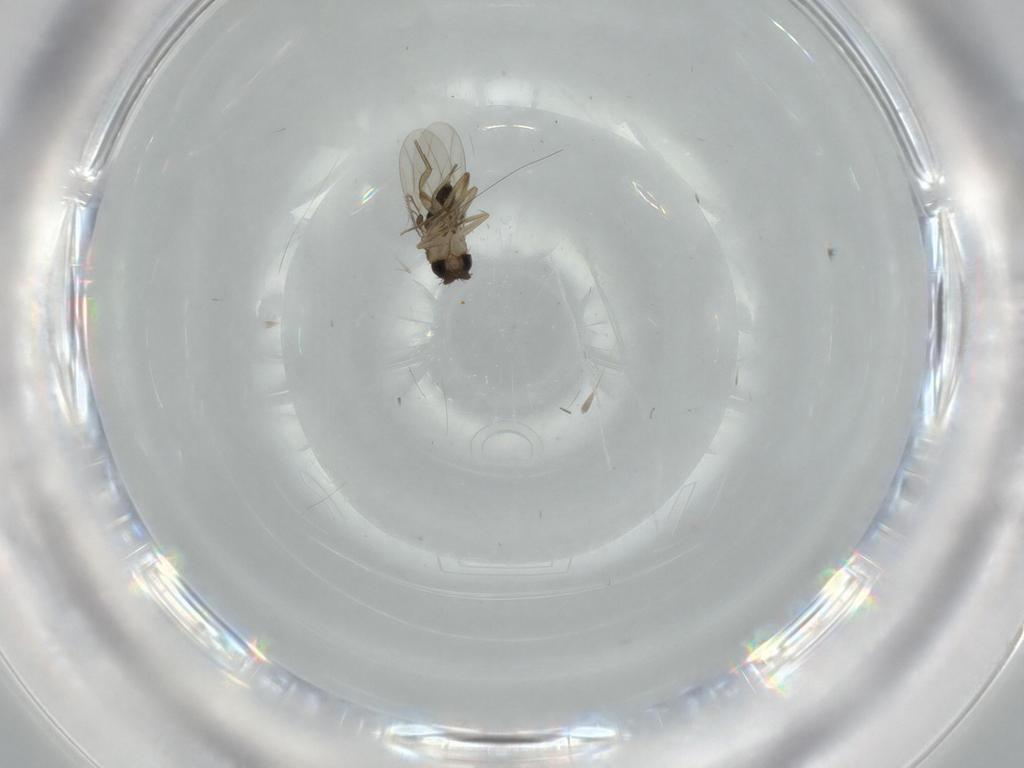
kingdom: Animalia
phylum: Arthropoda
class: Insecta
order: Diptera
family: Phoridae
